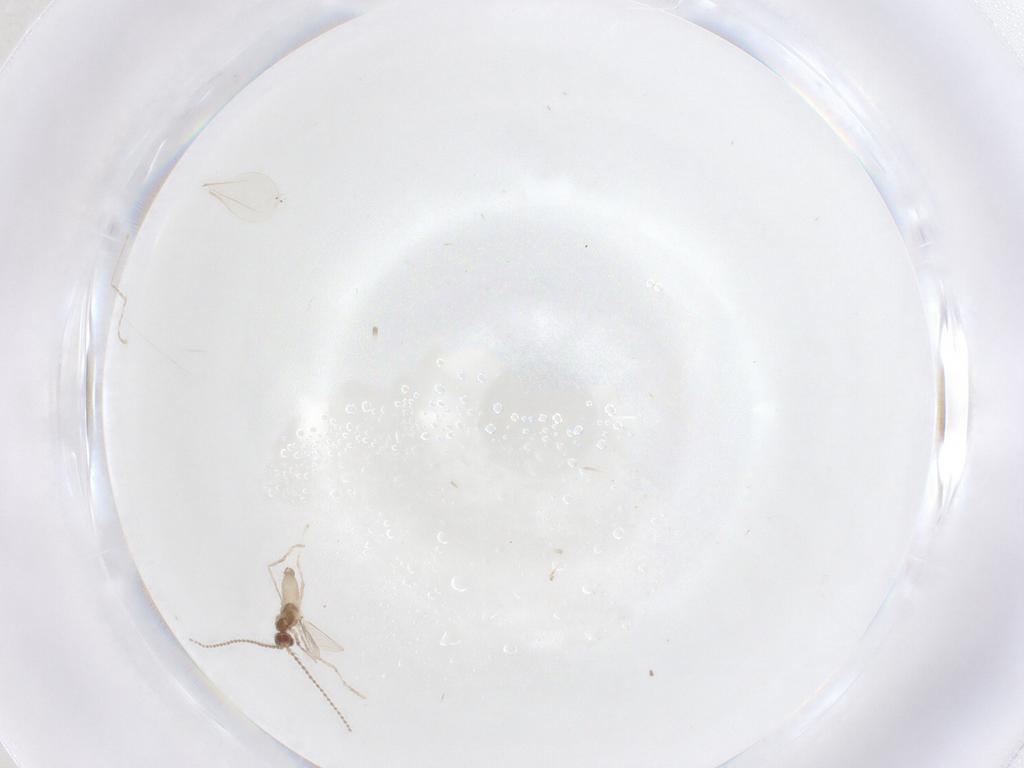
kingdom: Animalia
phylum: Arthropoda
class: Insecta
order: Diptera
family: Cecidomyiidae
